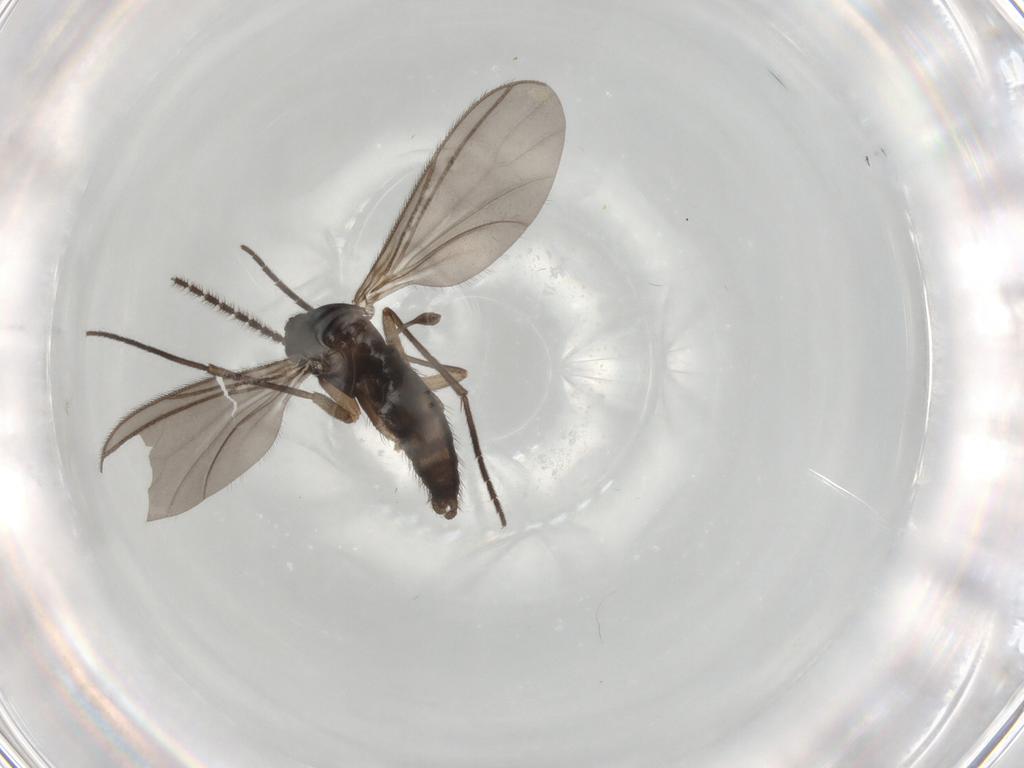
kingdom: Animalia
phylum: Arthropoda
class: Insecta
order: Diptera
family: Sciaridae
